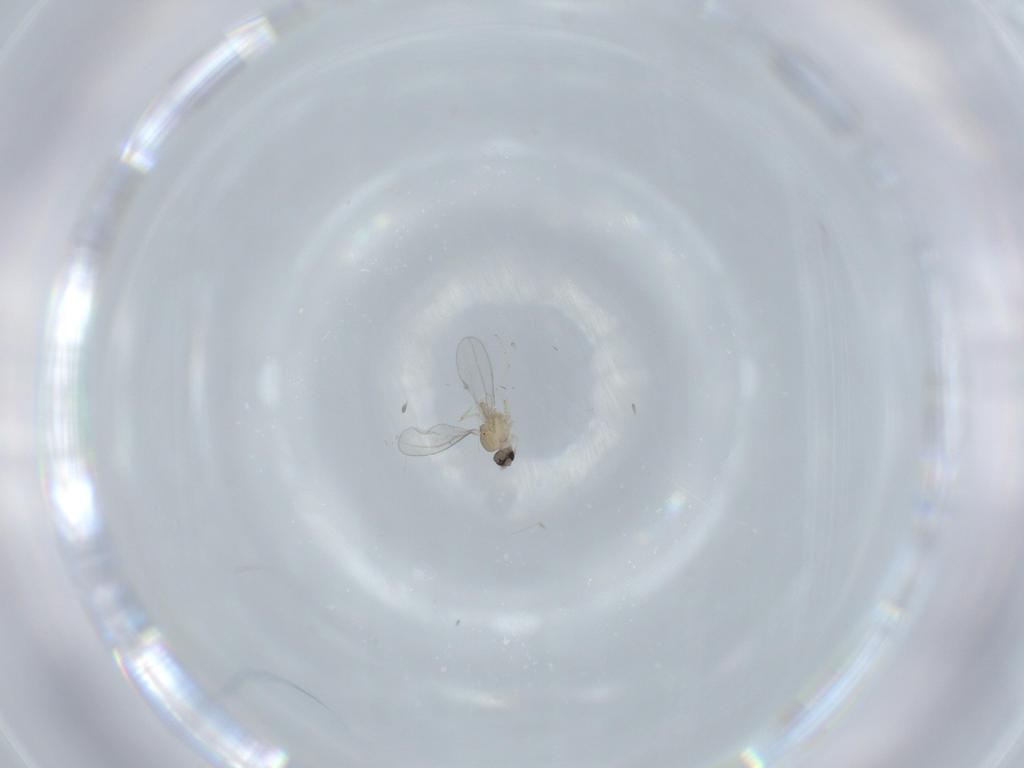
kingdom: Animalia
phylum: Arthropoda
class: Insecta
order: Diptera
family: Cecidomyiidae
